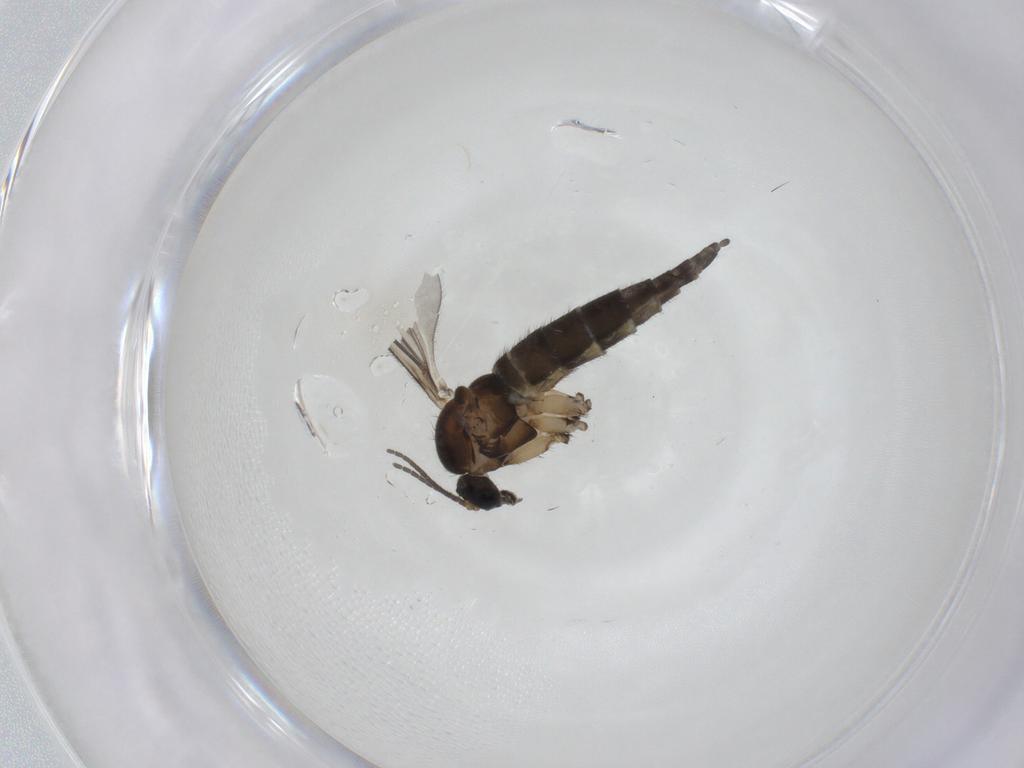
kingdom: Animalia
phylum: Arthropoda
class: Insecta
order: Diptera
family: Sciaridae
